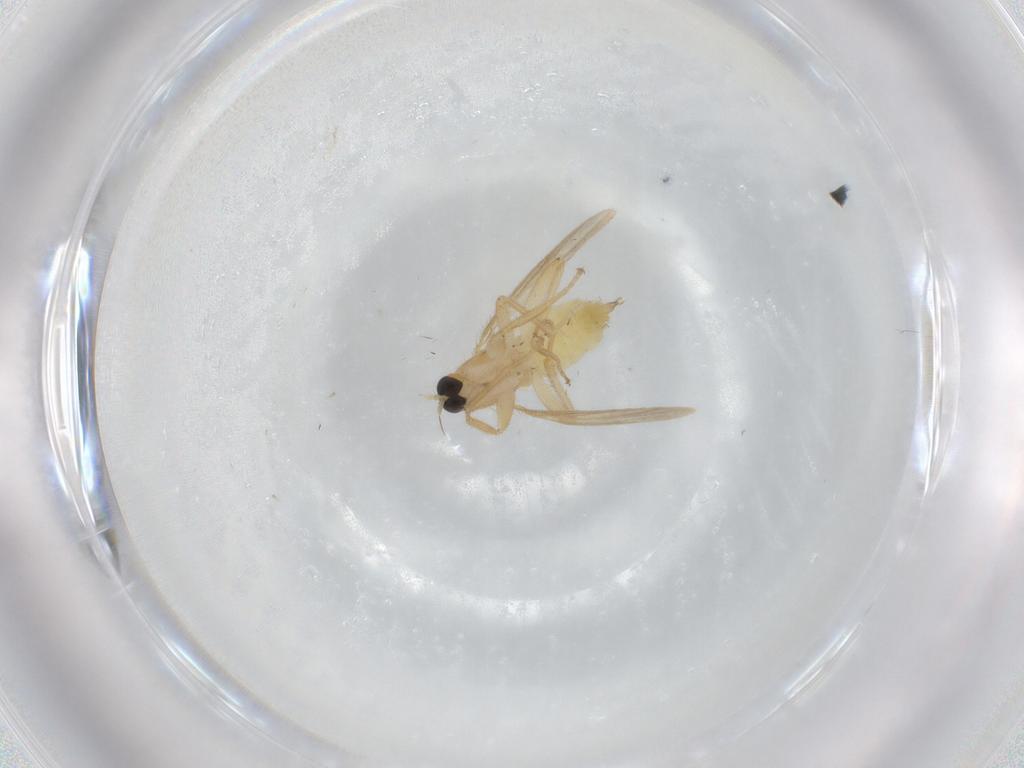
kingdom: Animalia
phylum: Arthropoda
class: Insecta
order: Diptera
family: Hybotidae
